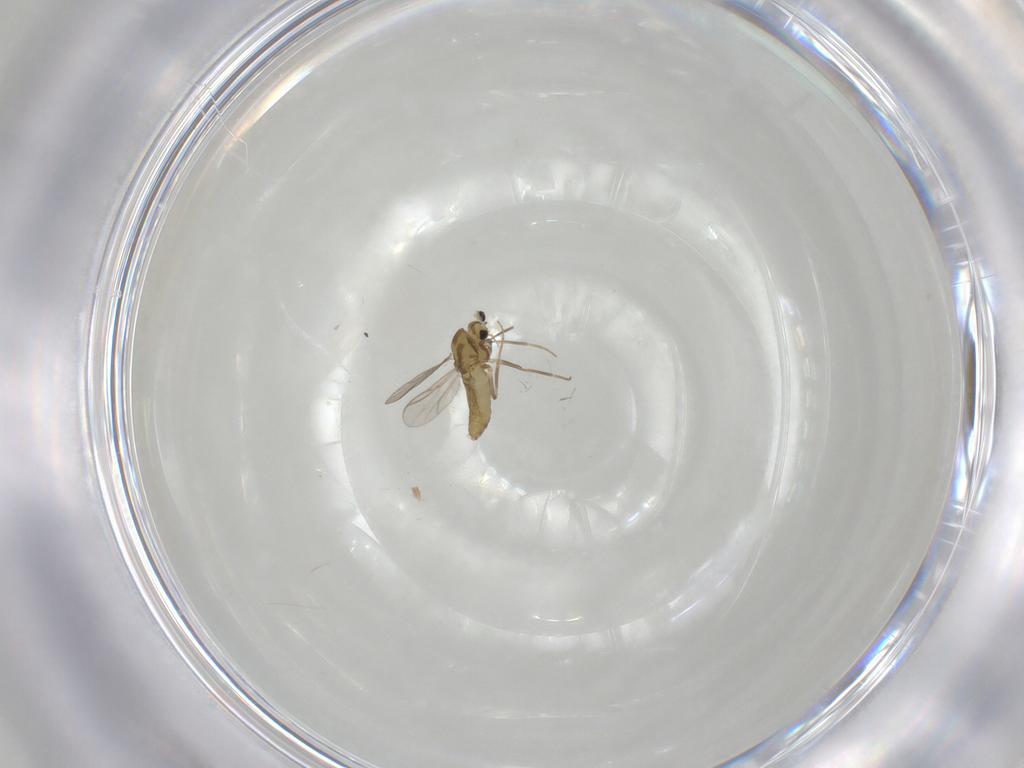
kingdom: Animalia
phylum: Arthropoda
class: Insecta
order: Diptera
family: Chironomidae
